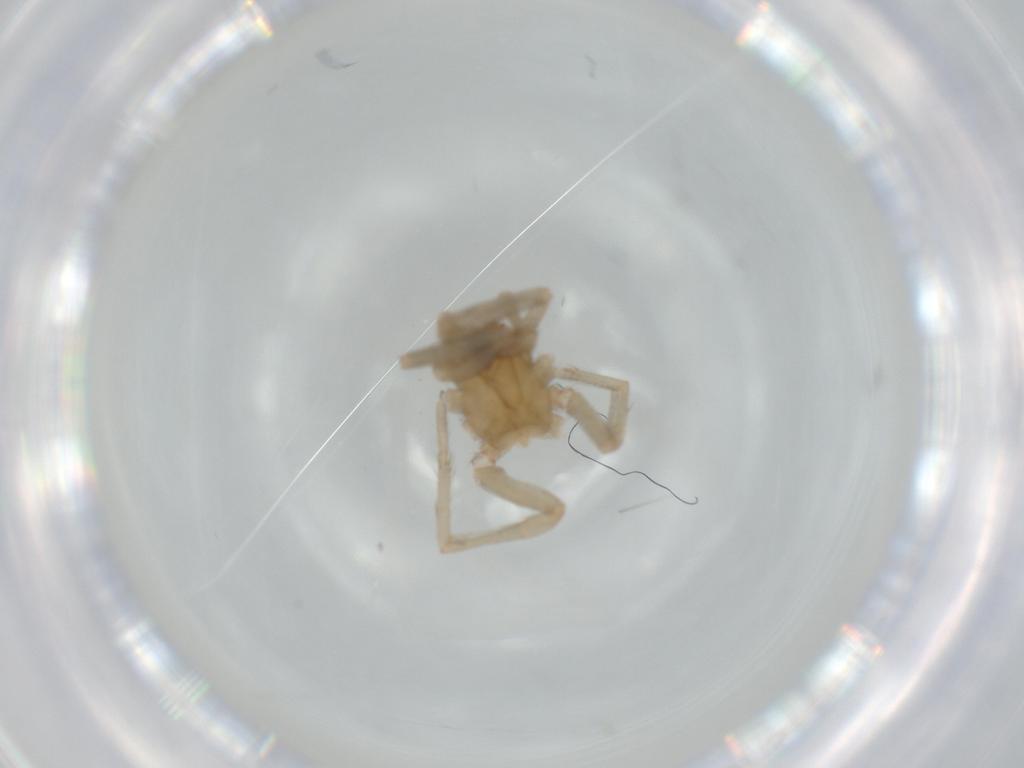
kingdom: Animalia
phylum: Arthropoda
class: Arachnida
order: Araneae
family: Gnaphosidae
